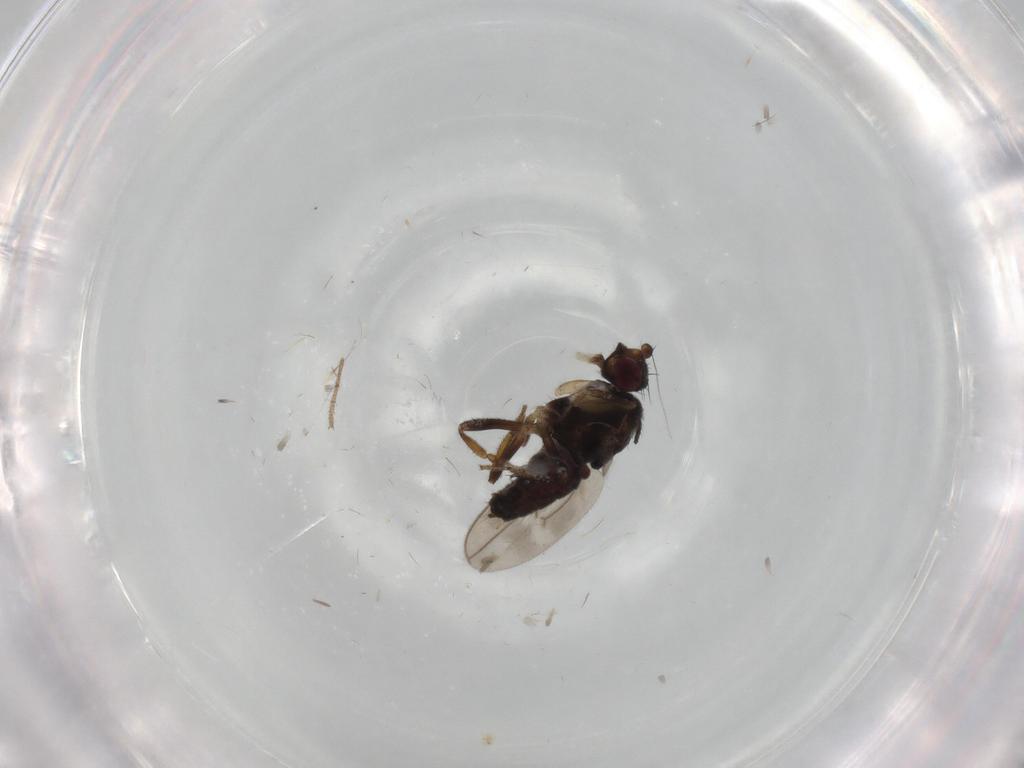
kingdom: Animalia
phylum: Arthropoda
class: Insecta
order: Diptera
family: Sphaeroceridae
